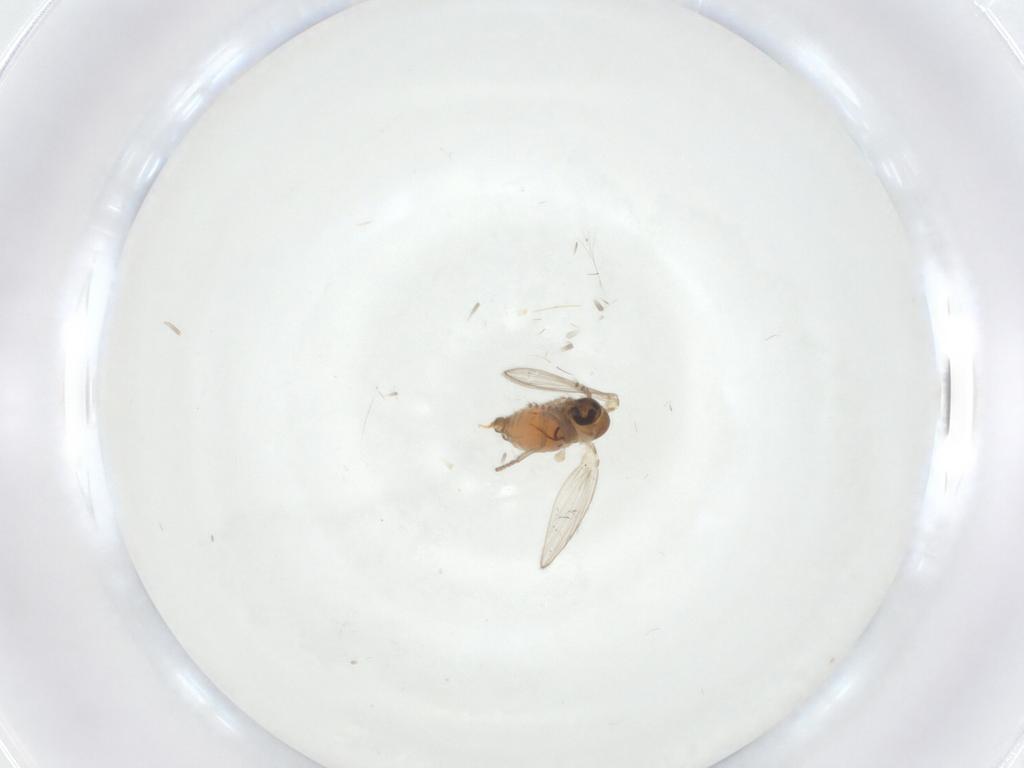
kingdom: Animalia
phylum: Arthropoda
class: Insecta
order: Diptera
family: Psychodidae
